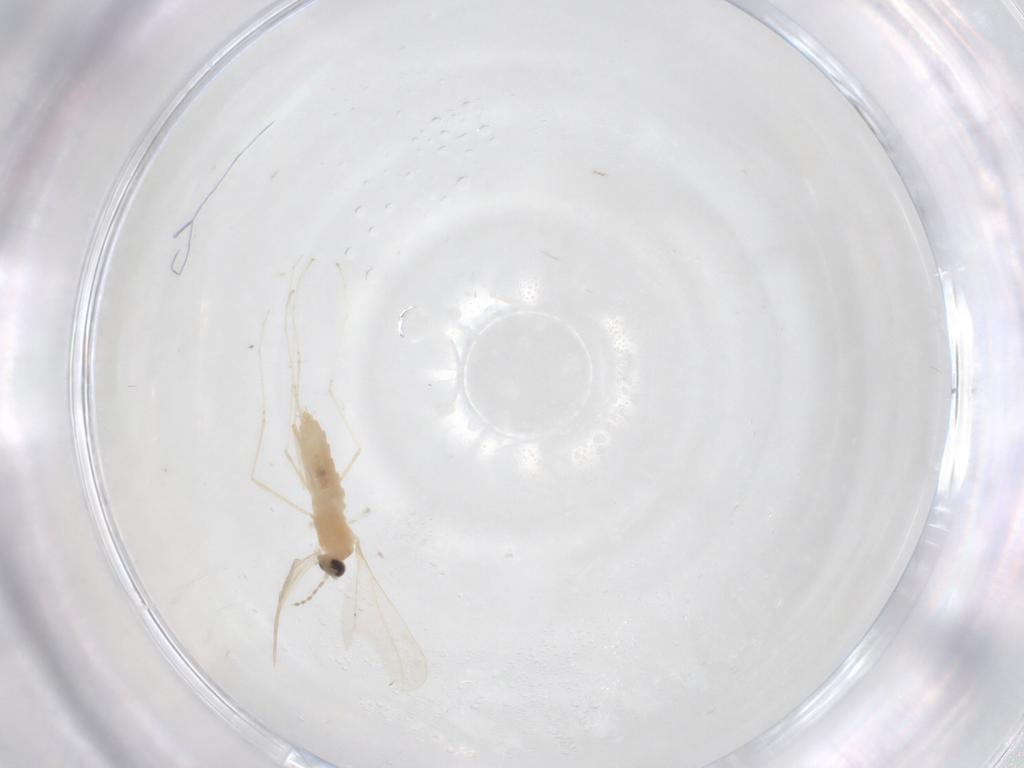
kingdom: Animalia
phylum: Arthropoda
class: Insecta
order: Diptera
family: Cecidomyiidae
